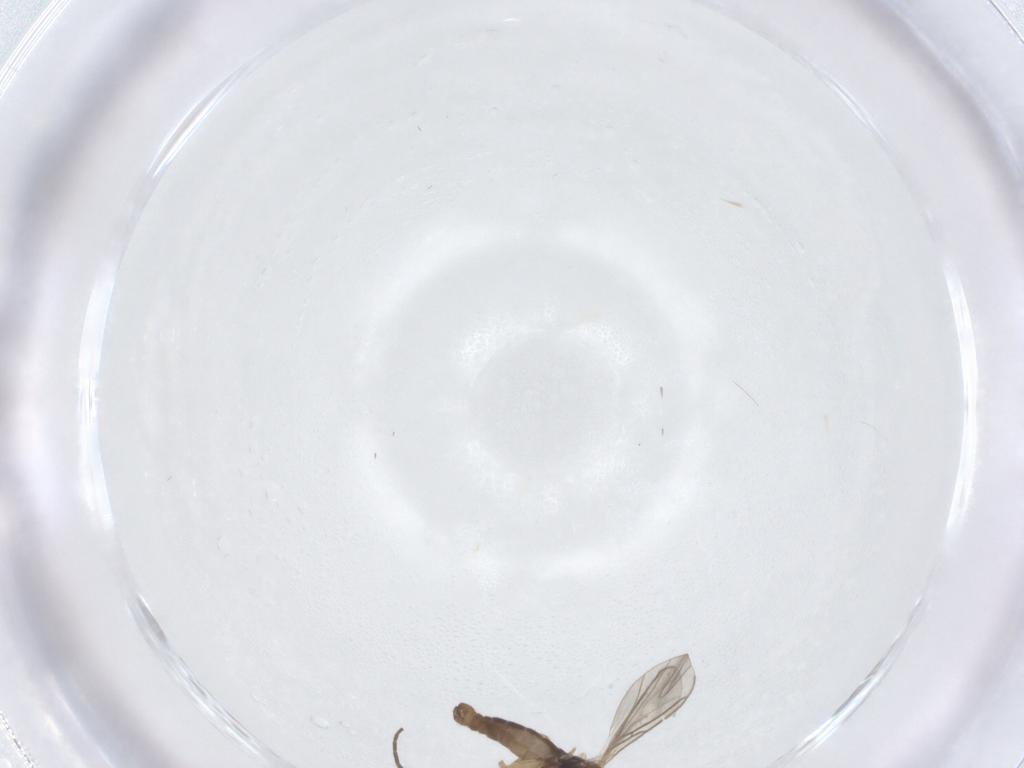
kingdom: Animalia
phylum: Arthropoda
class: Insecta
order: Diptera
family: Sciaridae
